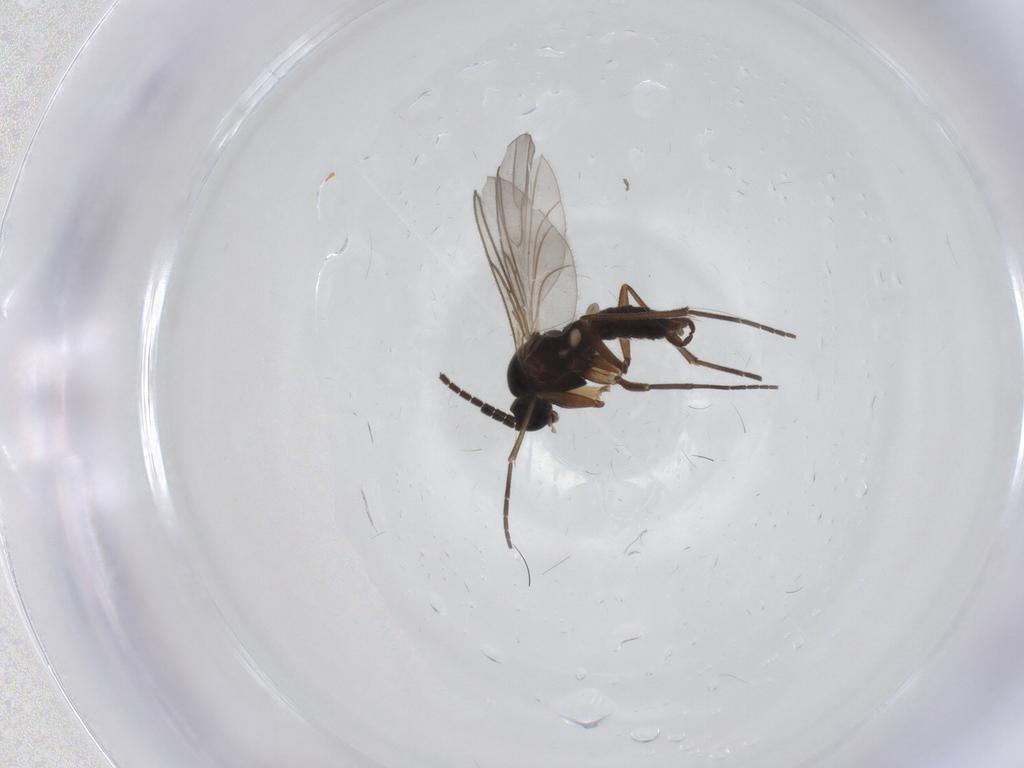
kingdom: Animalia
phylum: Arthropoda
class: Insecta
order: Diptera
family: Sciaridae
